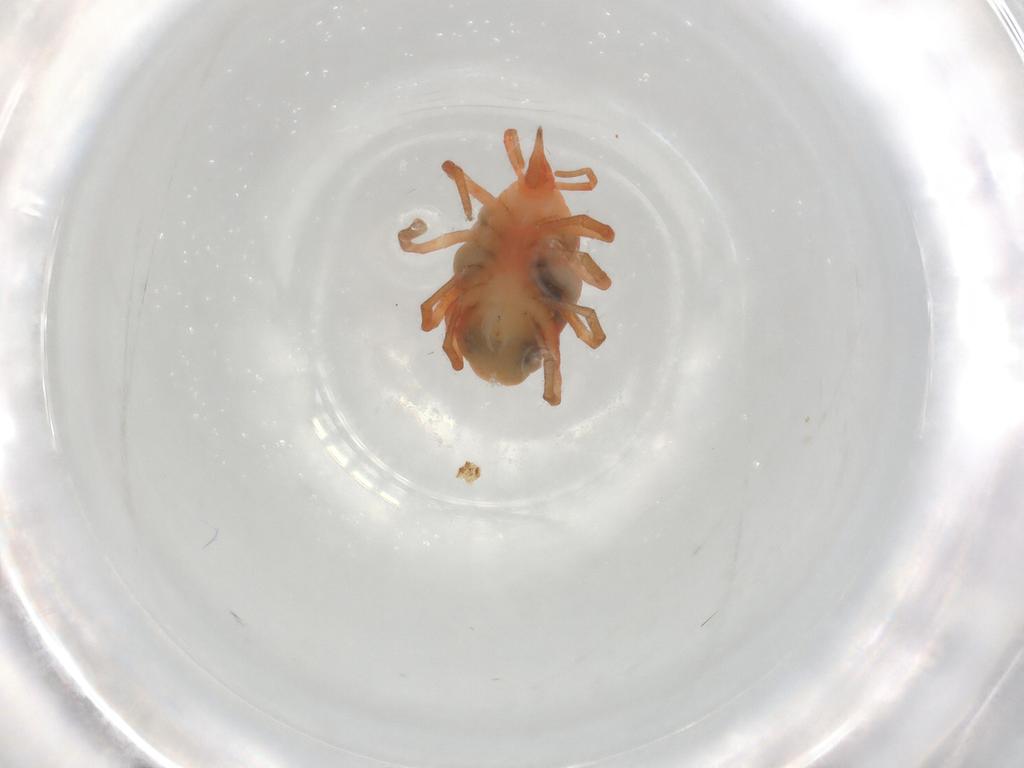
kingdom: Animalia
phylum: Arthropoda
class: Arachnida
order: Trombidiformes
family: Bdellidae
